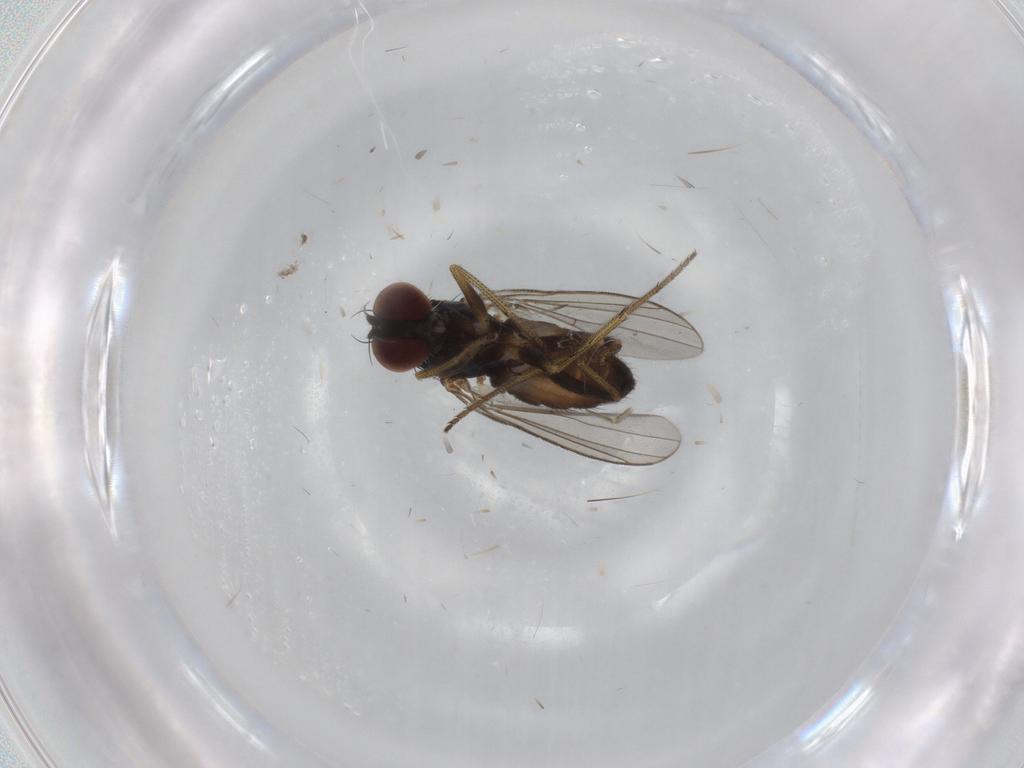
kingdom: Animalia
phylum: Arthropoda
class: Insecta
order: Diptera
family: Chironomidae
